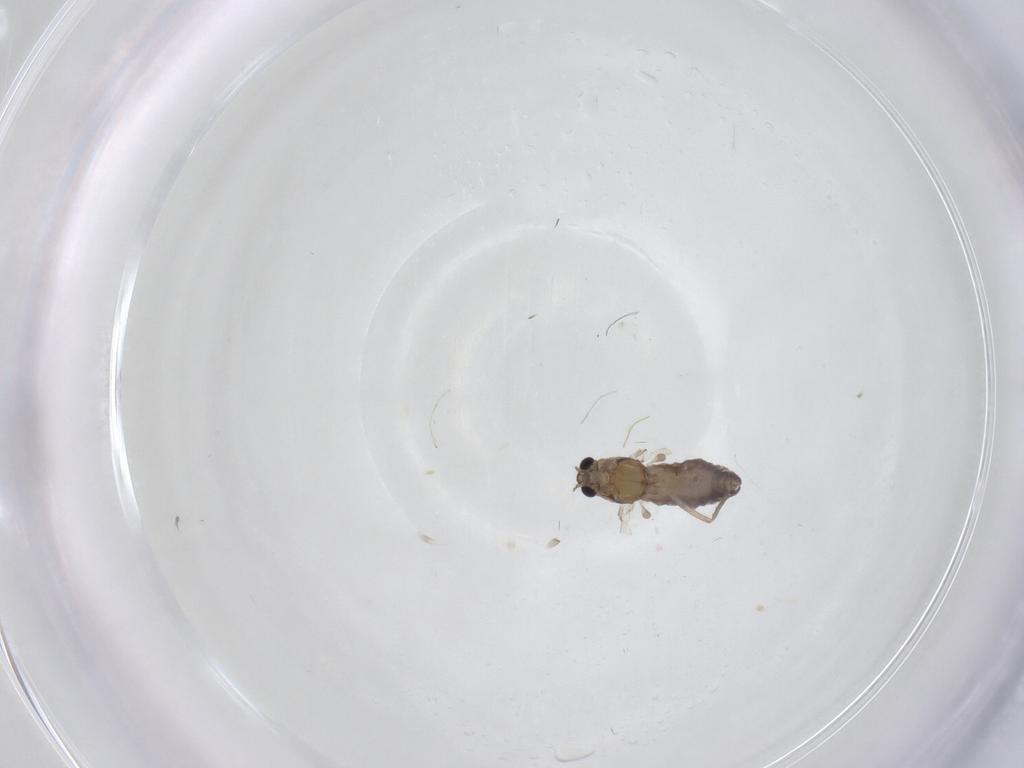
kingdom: Animalia
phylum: Arthropoda
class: Insecta
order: Diptera
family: Chironomidae
